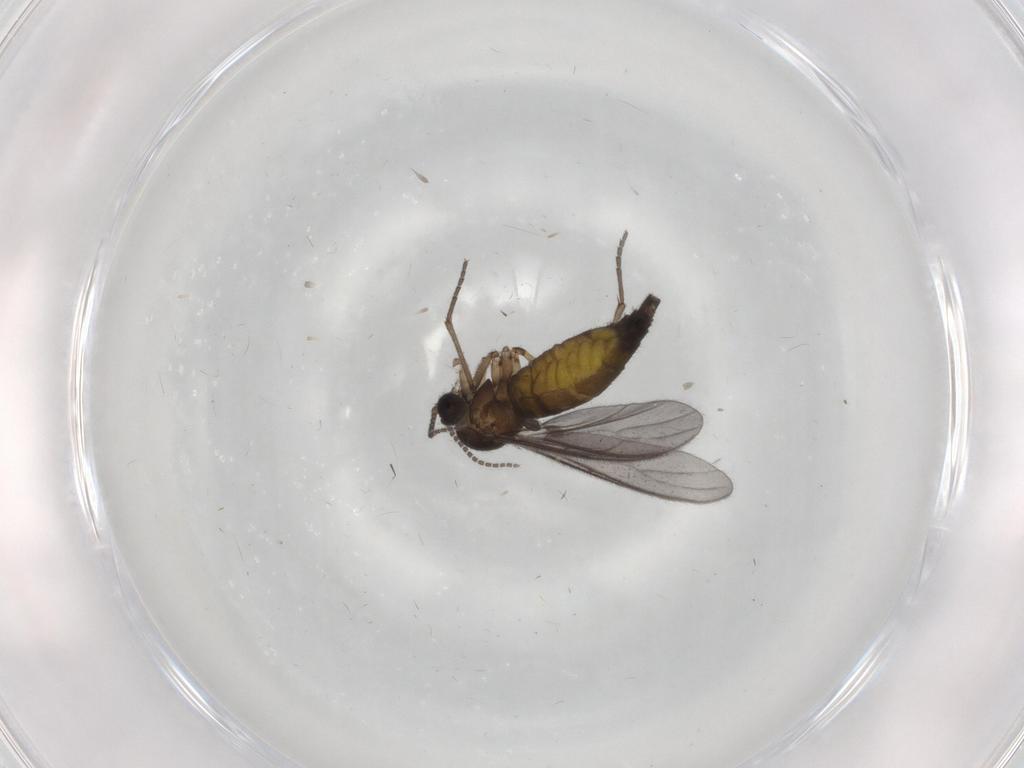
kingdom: Animalia
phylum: Arthropoda
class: Insecta
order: Diptera
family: Sciaridae
